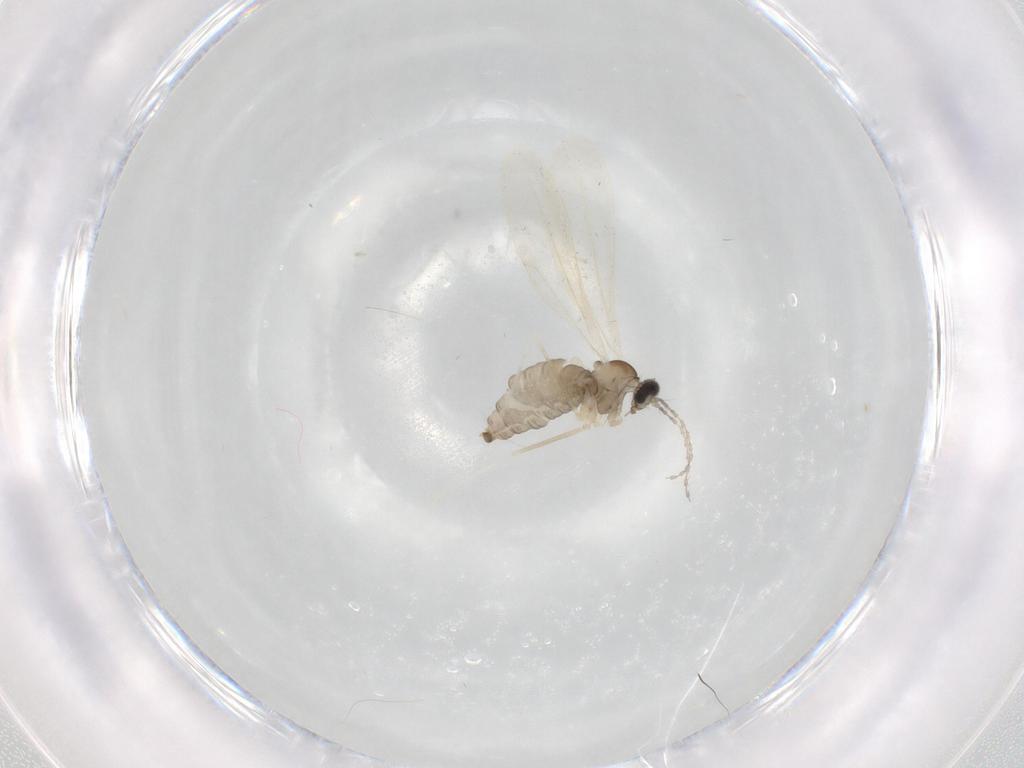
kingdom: Animalia
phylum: Arthropoda
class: Insecta
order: Diptera
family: Cecidomyiidae
